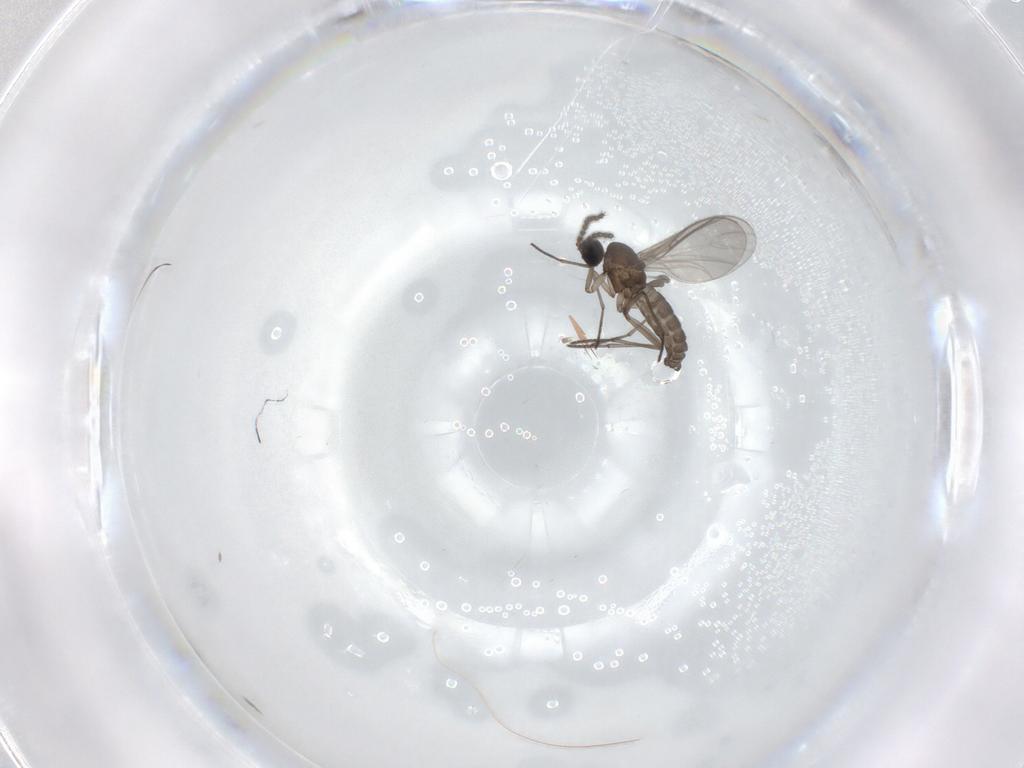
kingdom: Animalia
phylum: Arthropoda
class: Insecta
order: Diptera
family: Sciaridae
